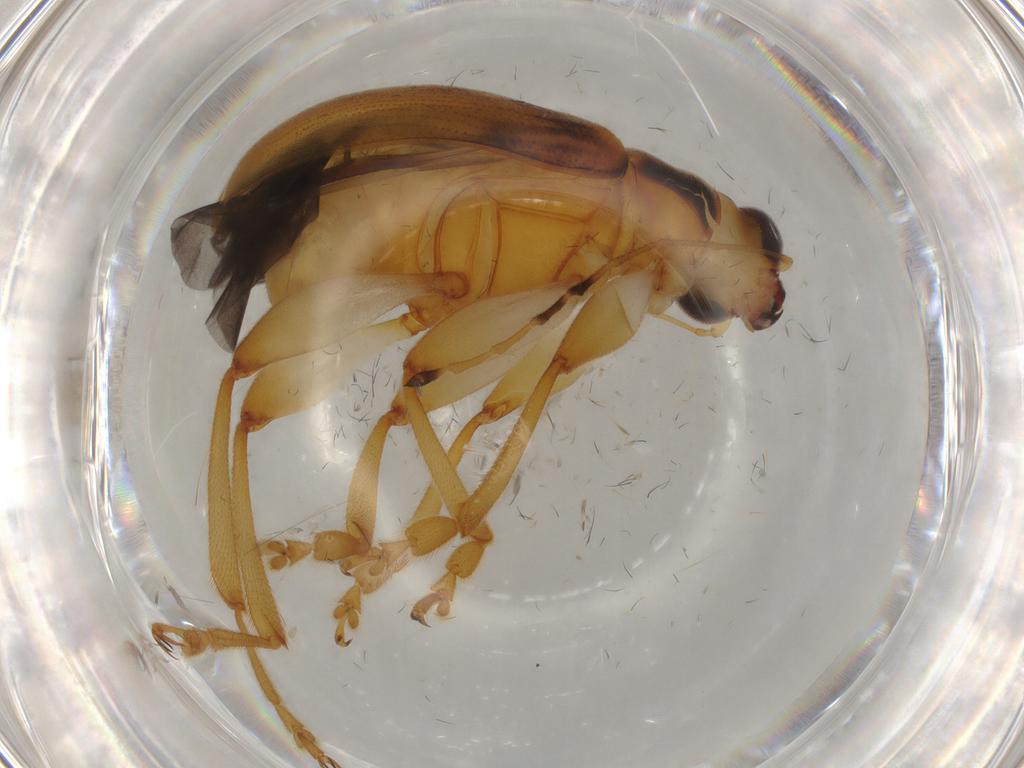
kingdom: Animalia
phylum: Arthropoda
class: Insecta
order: Coleoptera
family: Chrysomelidae
